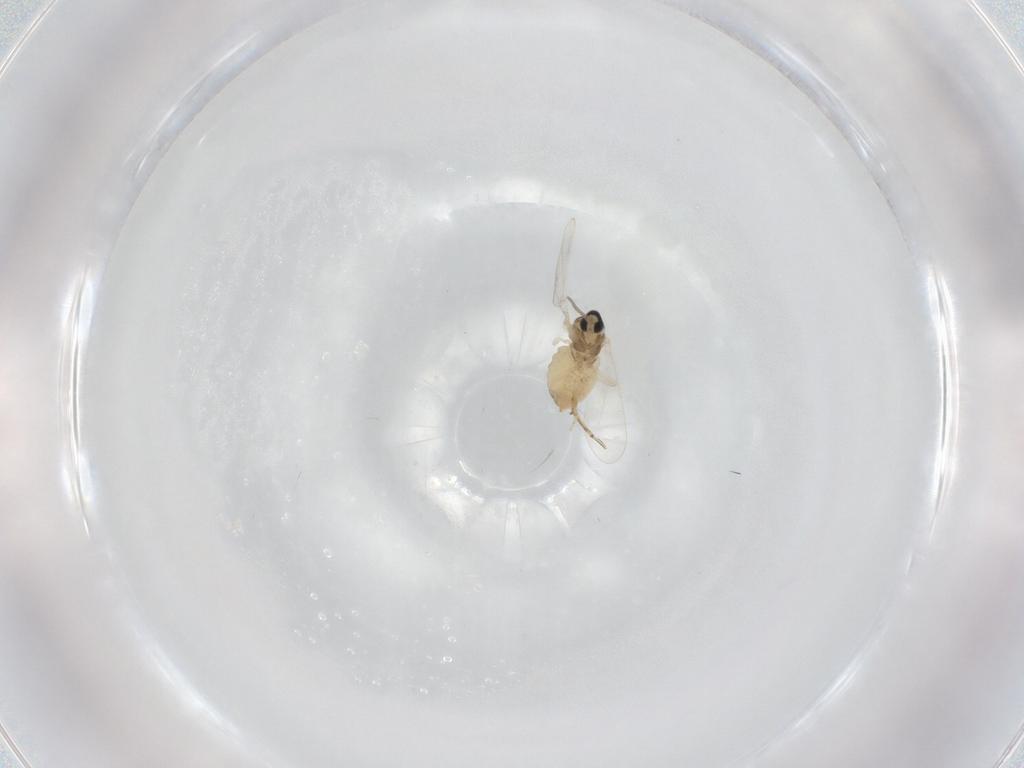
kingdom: Animalia
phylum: Arthropoda
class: Insecta
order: Diptera
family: Cecidomyiidae
